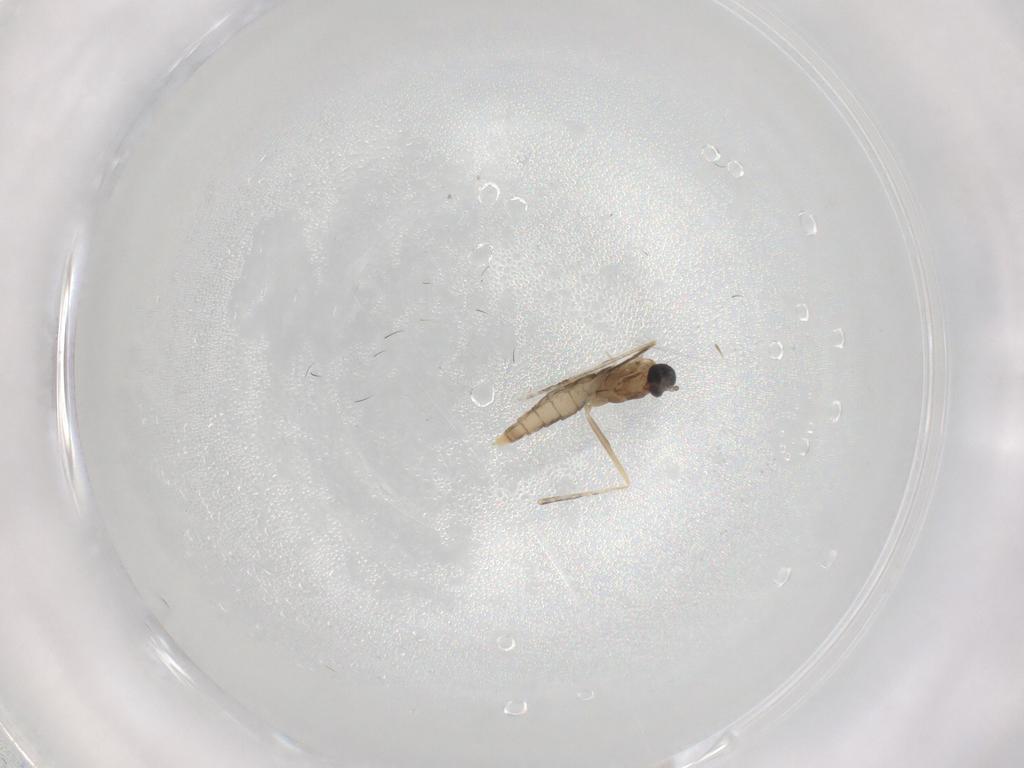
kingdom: Animalia
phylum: Arthropoda
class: Insecta
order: Diptera
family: Cecidomyiidae
